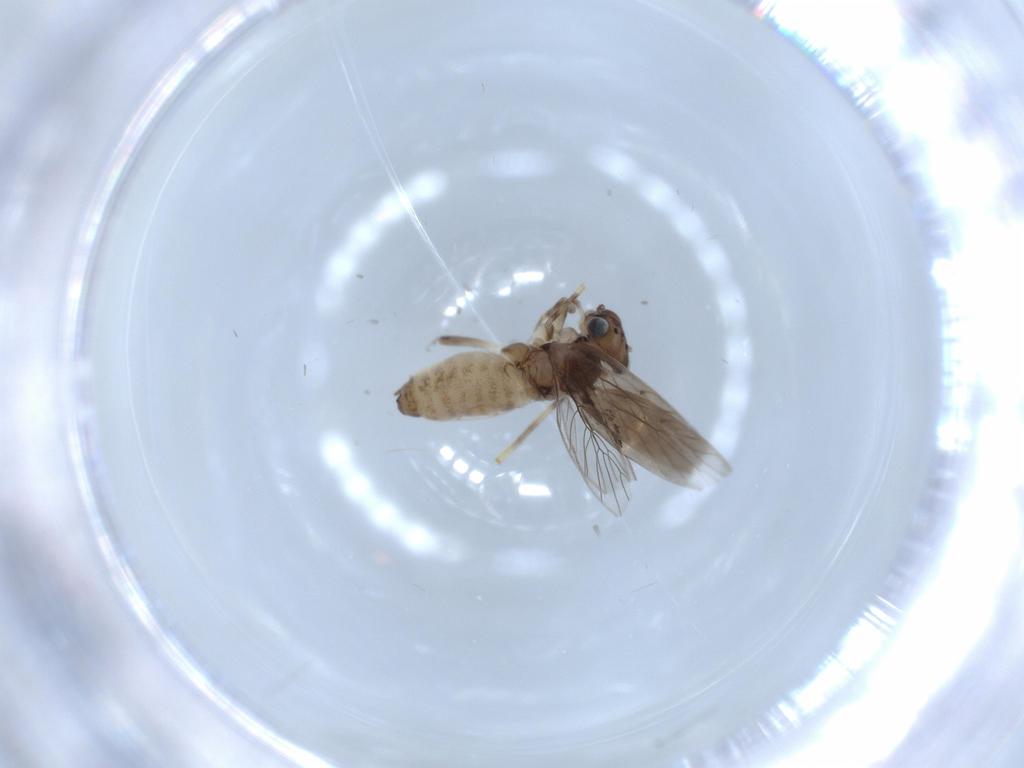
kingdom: Animalia
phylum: Arthropoda
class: Insecta
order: Psocodea
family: Lepidopsocidae
